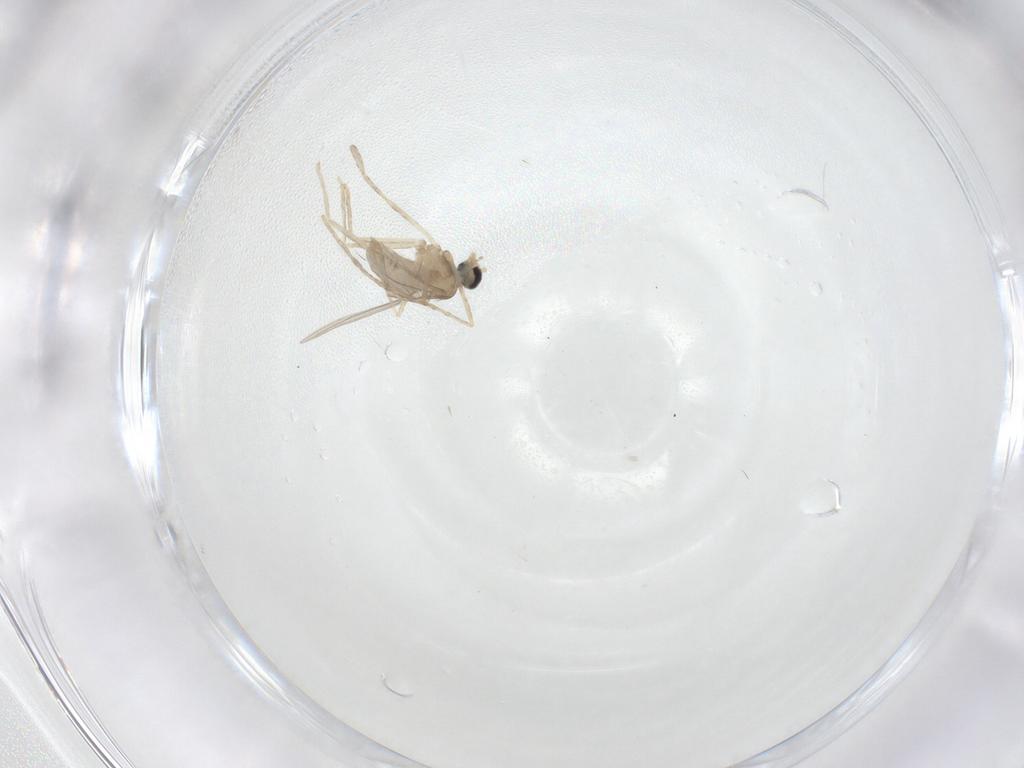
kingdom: Animalia
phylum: Arthropoda
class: Insecta
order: Diptera
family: Cecidomyiidae
